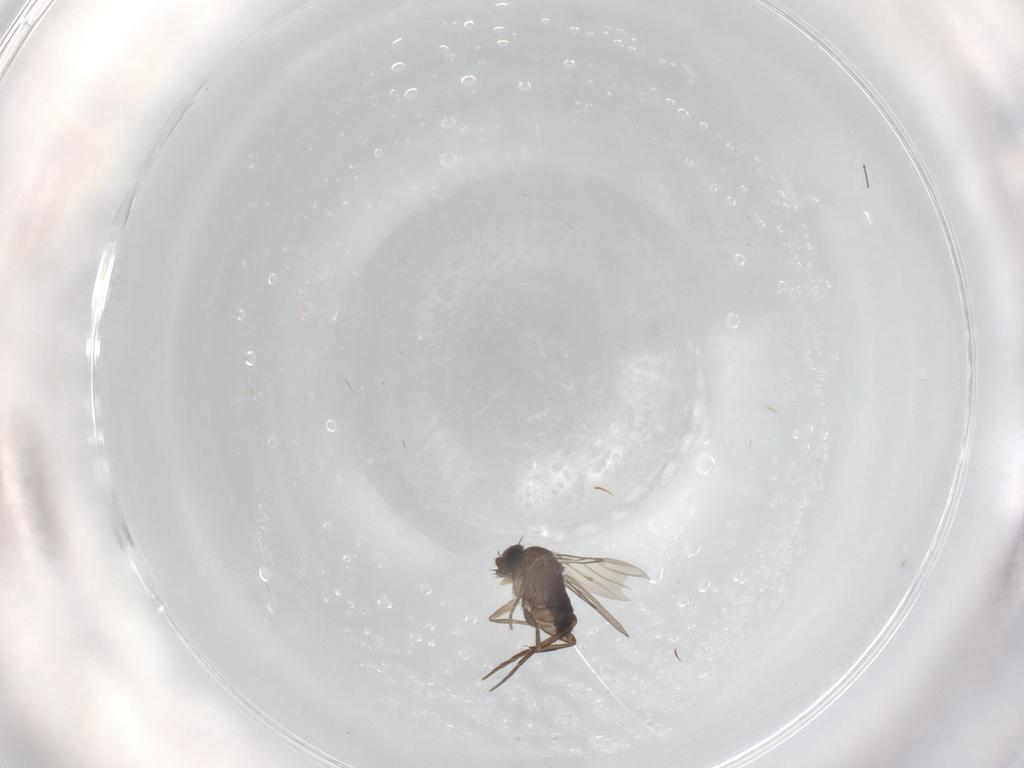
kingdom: Animalia
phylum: Arthropoda
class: Insecta
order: Diptera
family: Phoridae
